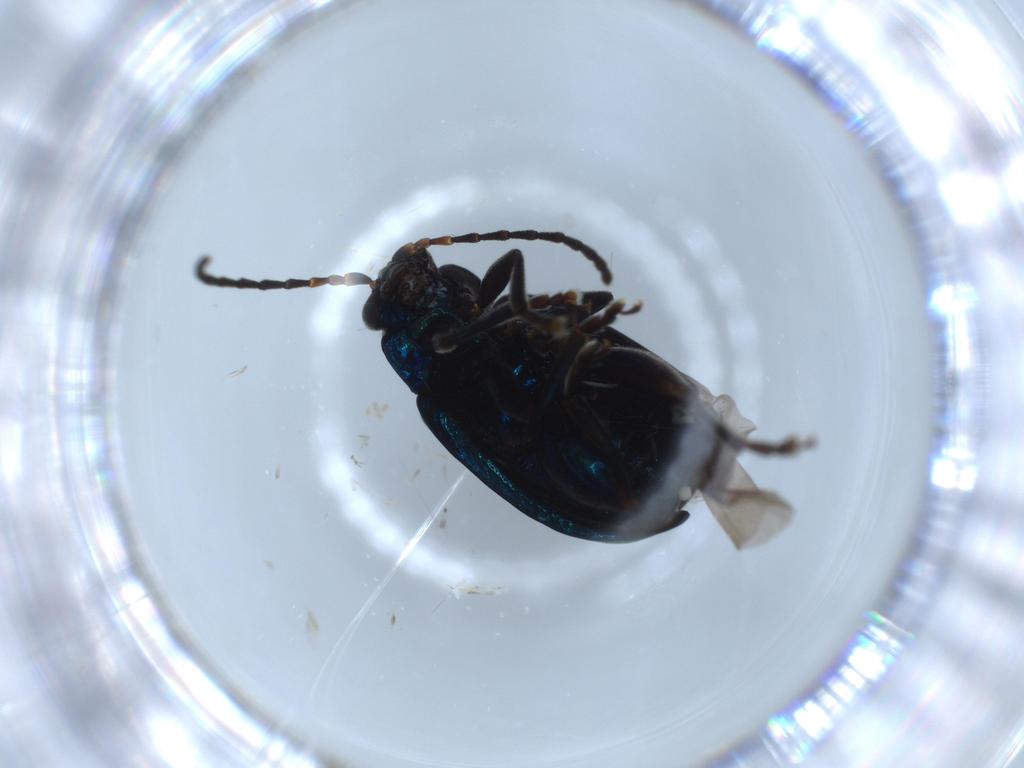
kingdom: Animalia
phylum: Arthropoda
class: Insecta
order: Coleoptera
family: Chrysomelidae
